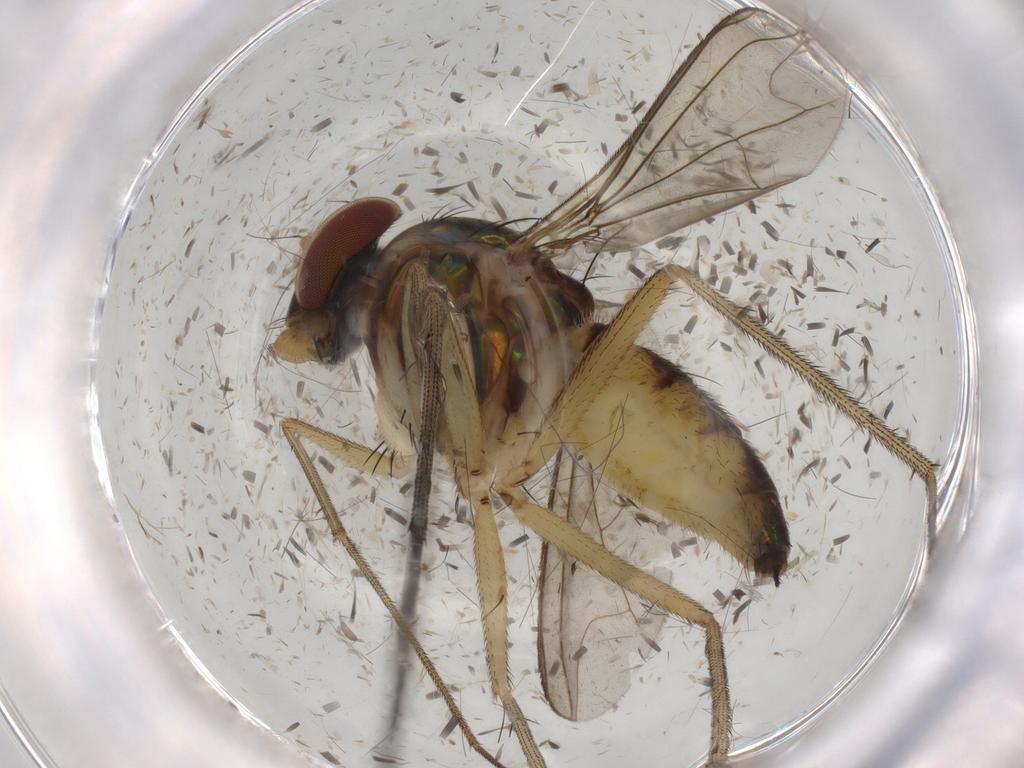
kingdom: Animalia
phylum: Arthropoda
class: Insecta
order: Diptera
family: Dolichopodidae
